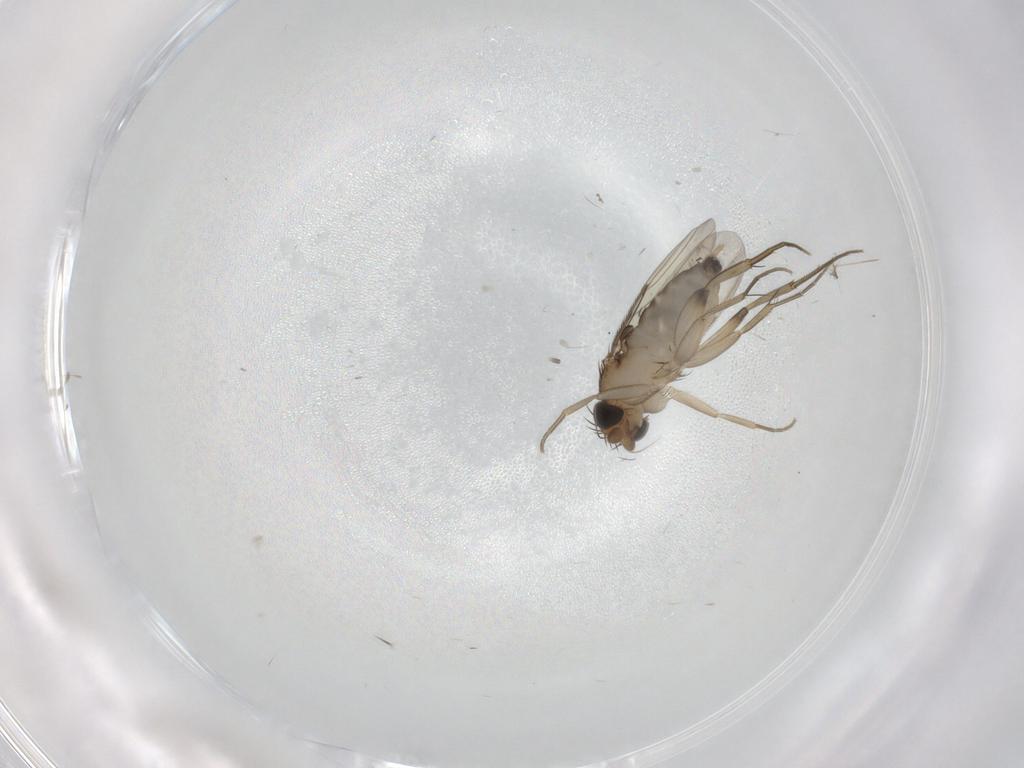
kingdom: Animalia
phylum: Arthropoda
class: Insecta
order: Diptera
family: Phoridae
